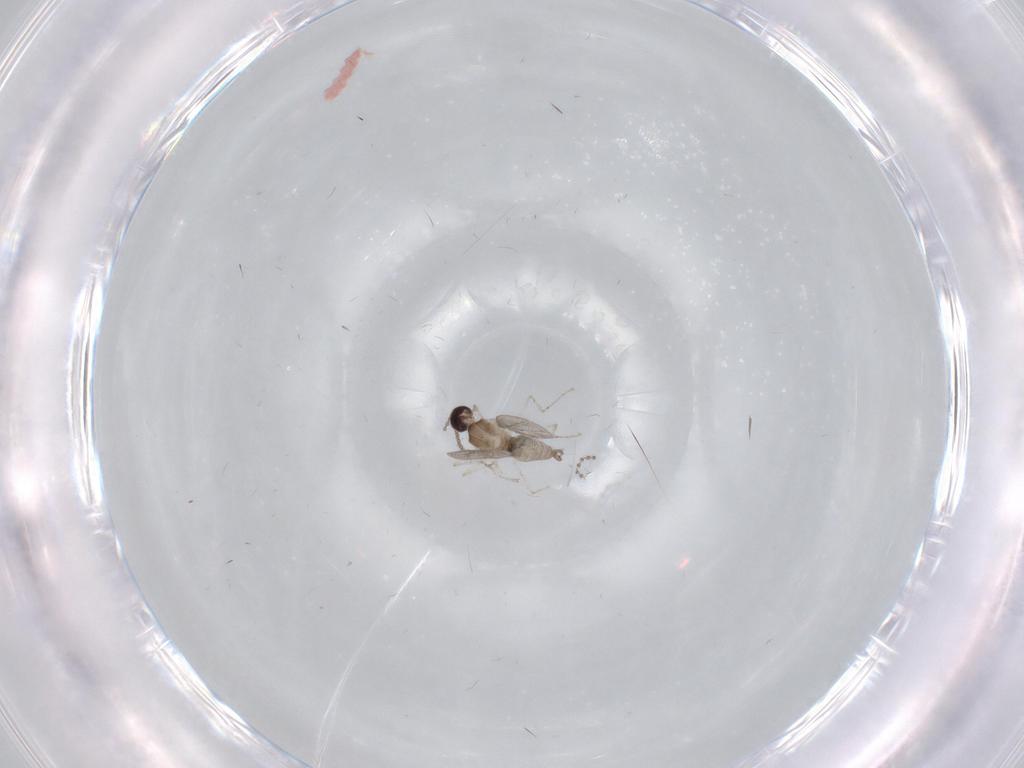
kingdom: Animalia
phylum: Arthropoda
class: Insecta
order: Diptera
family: Cecidomyiidae
